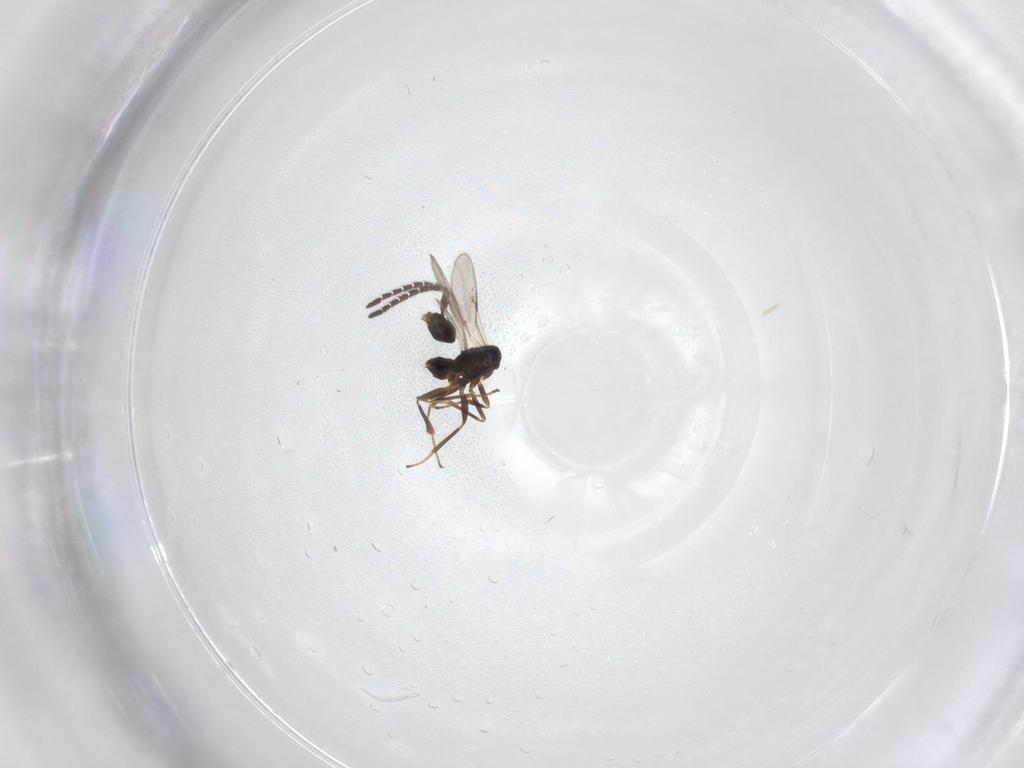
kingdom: Animalia
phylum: Arthropoda
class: Insecta
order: Hymenoptera
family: Encyrtidae
